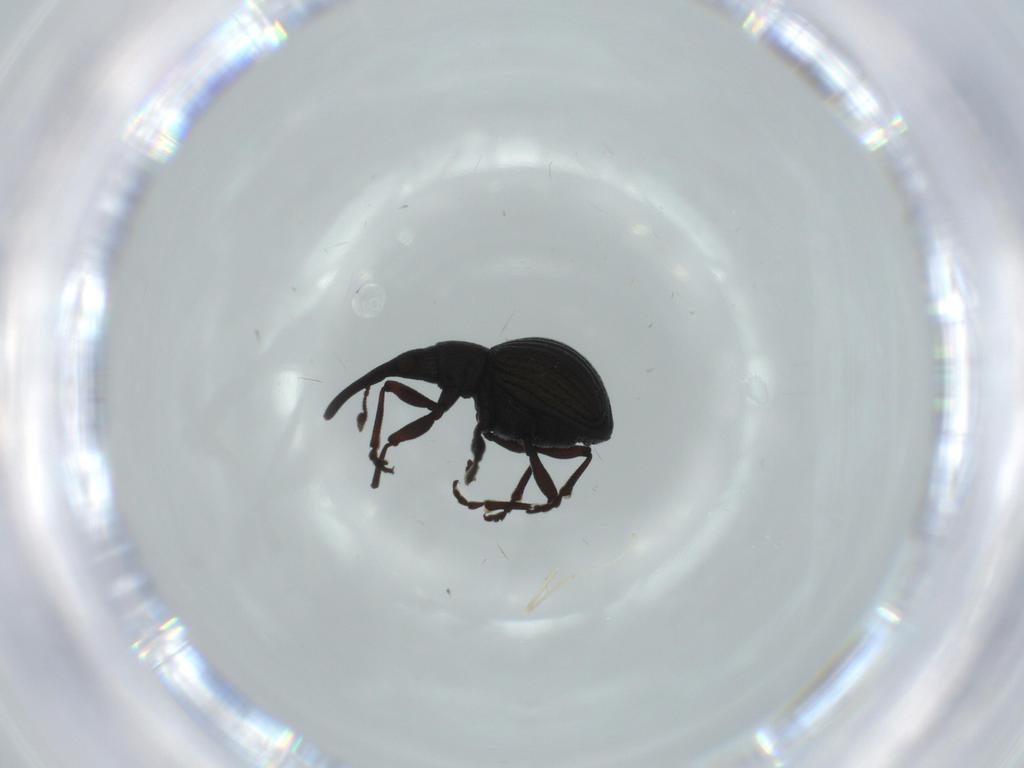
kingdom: Animalia
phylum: Arthropoda
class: Insecta
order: Coleoptera
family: Brentidae
